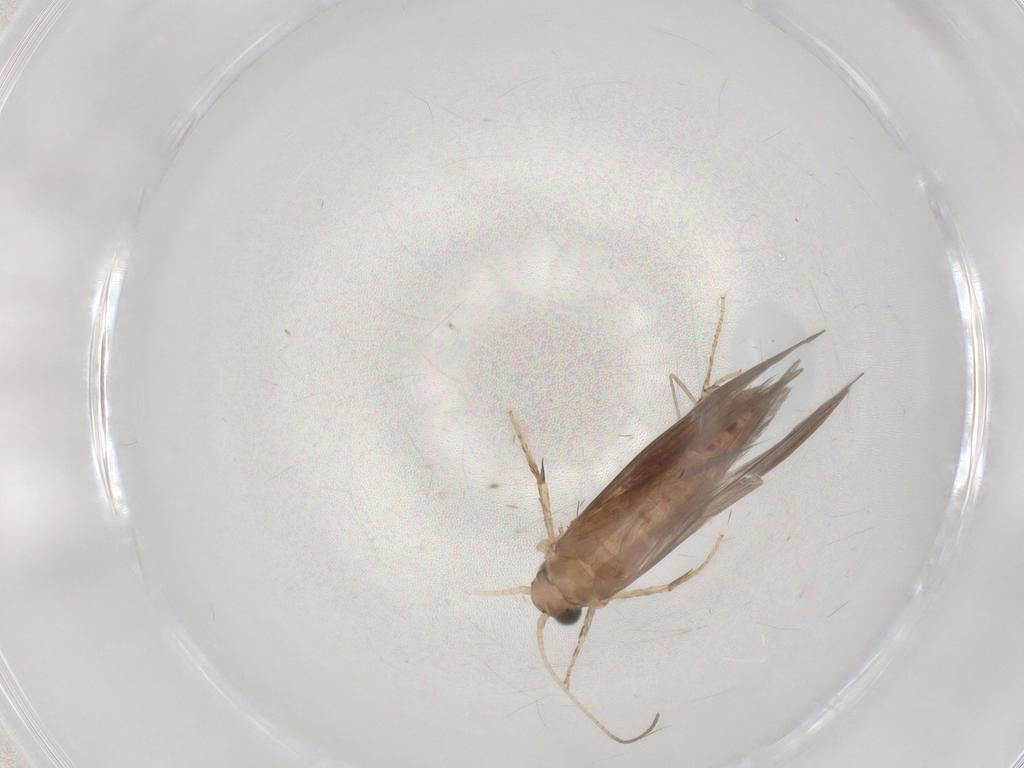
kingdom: Animalia
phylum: Arthropoda
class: Insecta
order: Trichoptera
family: Glossosomatidae
